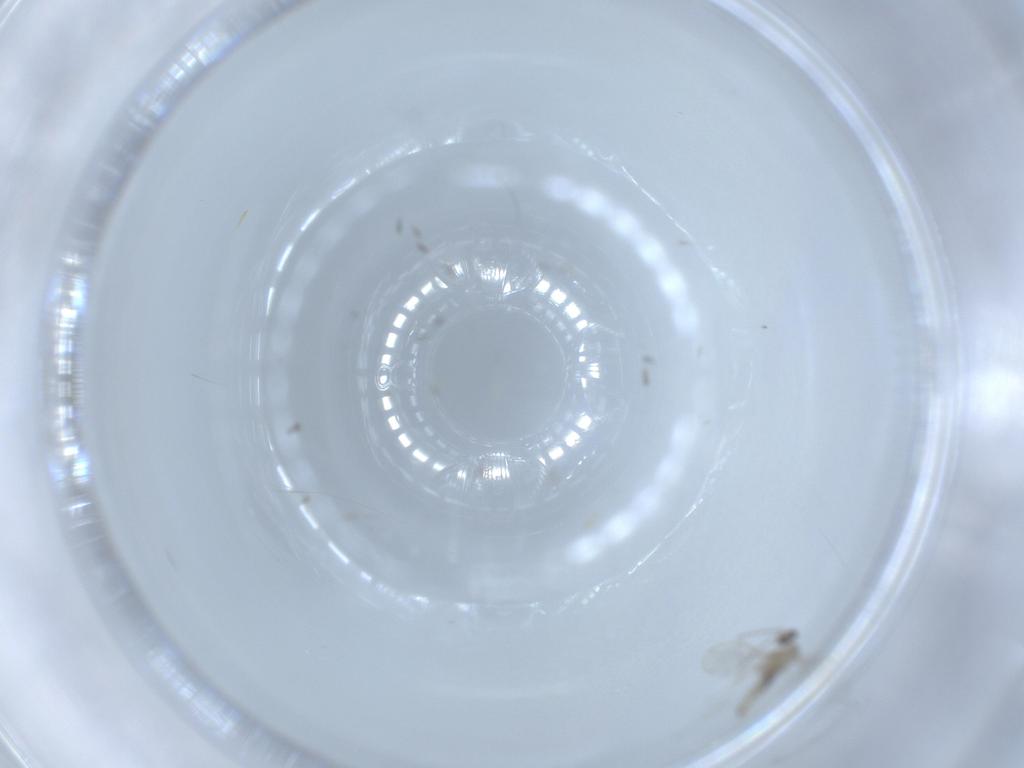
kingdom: Animalia
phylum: Arthropoda
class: Insecta
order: Diptera
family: Cecidomyiidae
